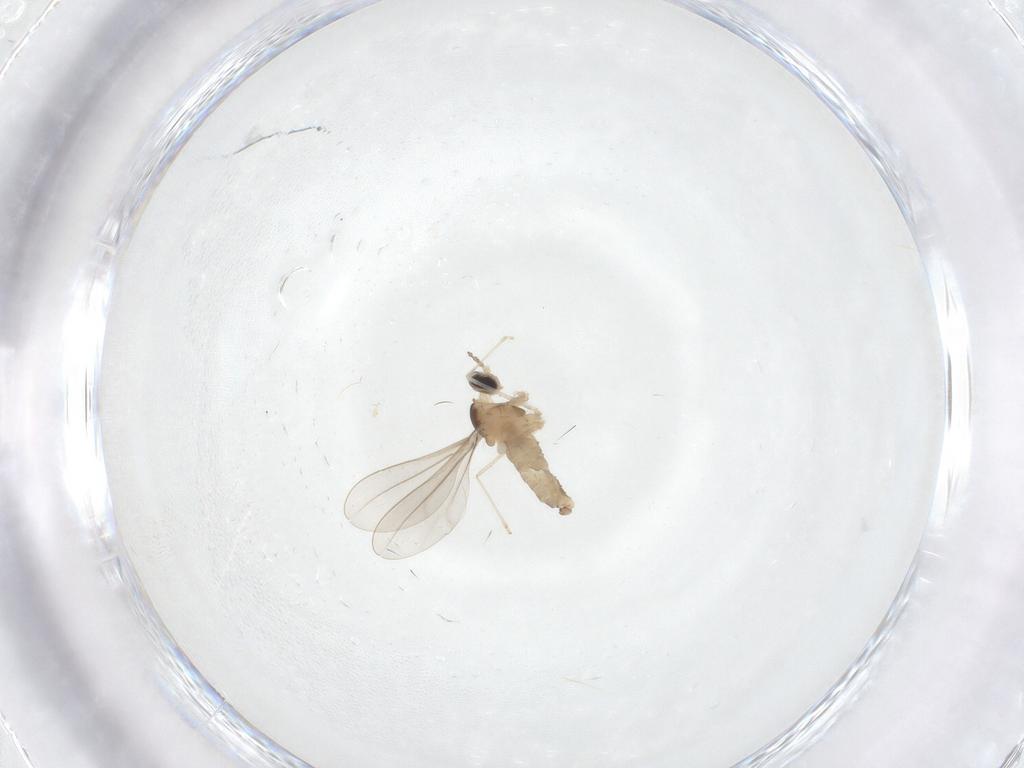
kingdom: Animalia
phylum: Arthropoda
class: Insecta
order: Diptera
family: Cecidomyiidae
